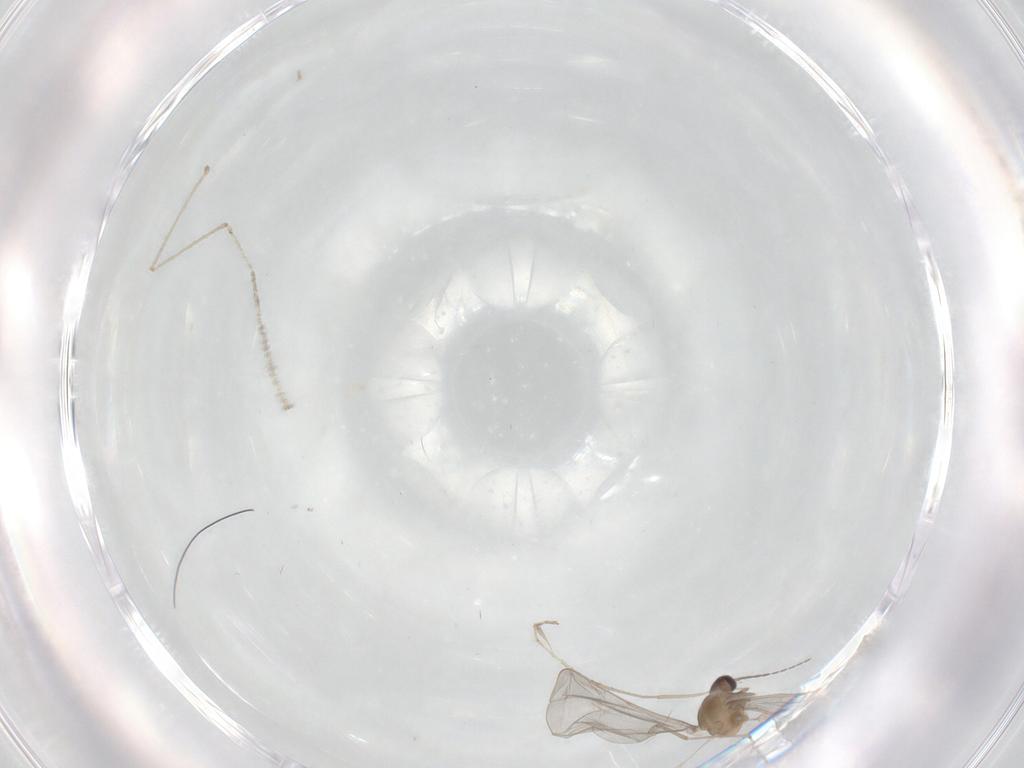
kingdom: Animalia
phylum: Arthropoda
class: Insecta
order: Diptera
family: Cecidomyiidae
